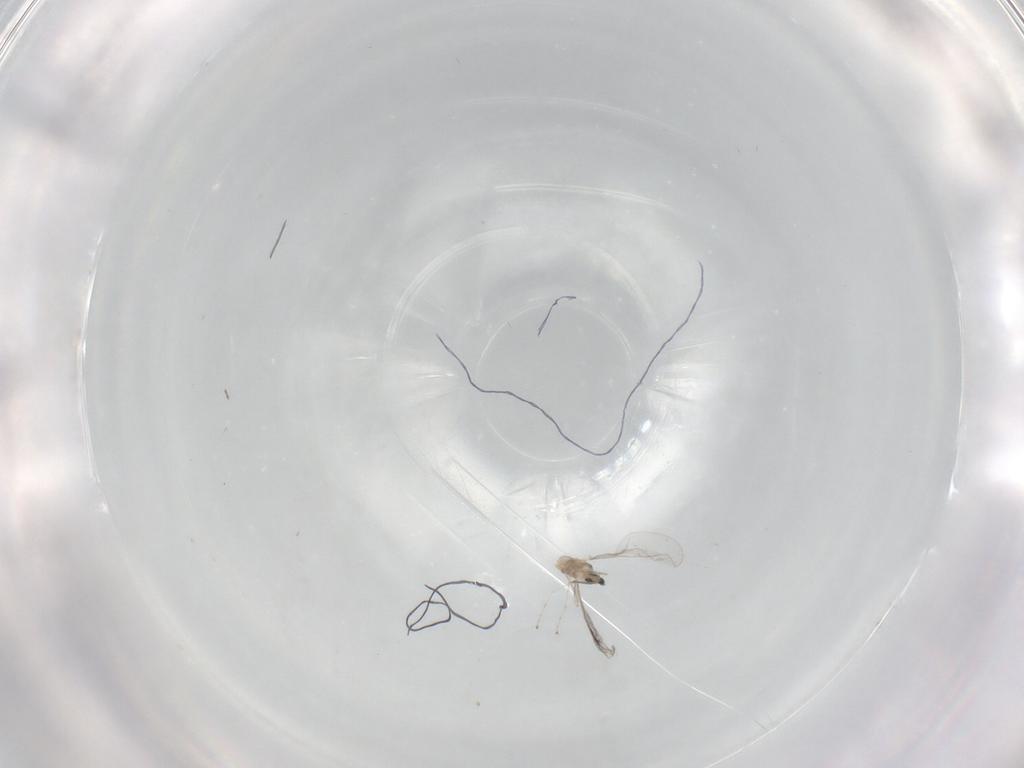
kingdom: Animalia
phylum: Arthropoda
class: Insecta
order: Diptera
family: Cecidomyiidae
